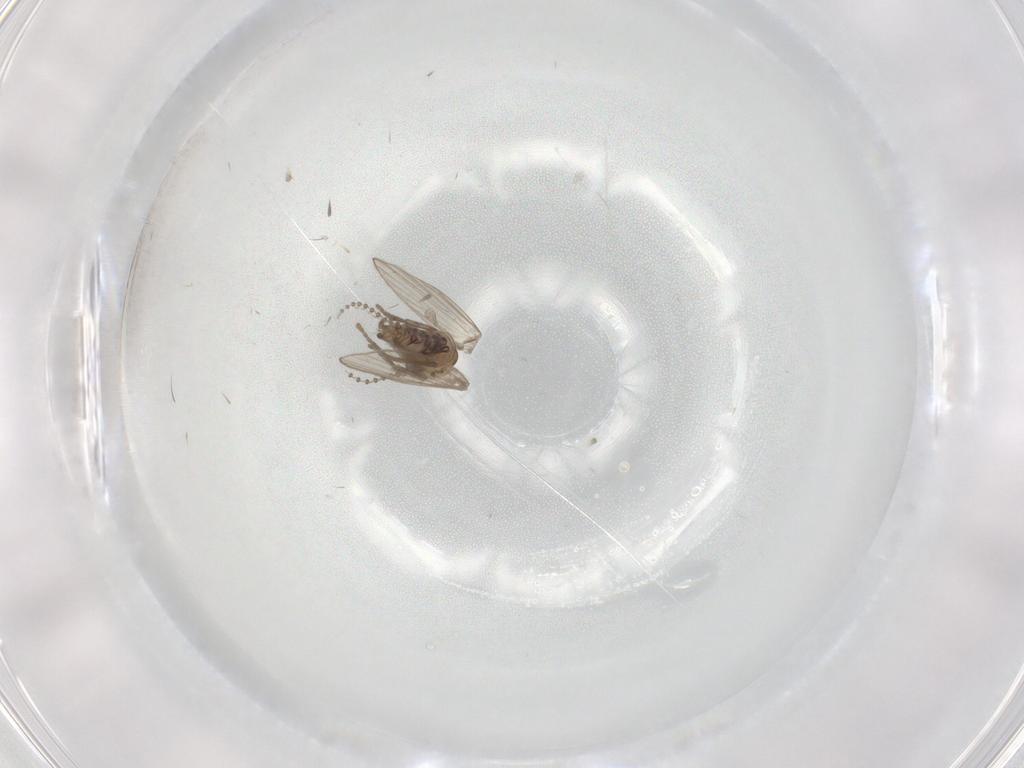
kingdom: Animalia
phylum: Arthropoda
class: Insecta
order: Diptera
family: Psychodidae
